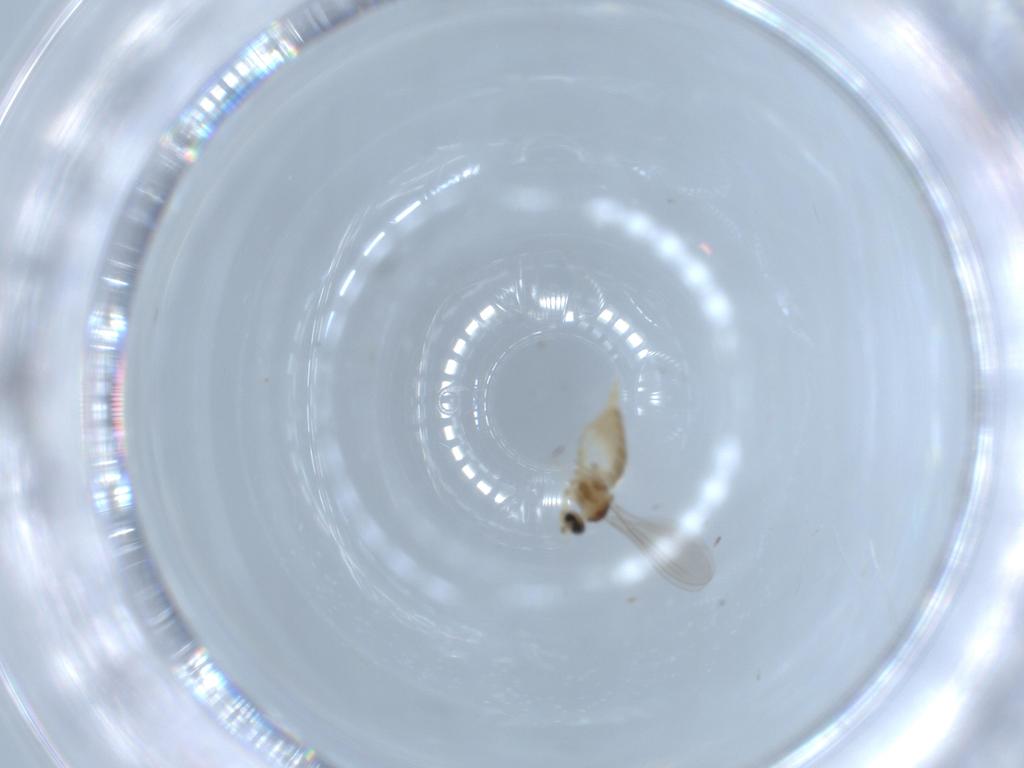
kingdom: Animalia
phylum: Arthropoda
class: Insecta
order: Diptera
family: Cecidomyiidae
